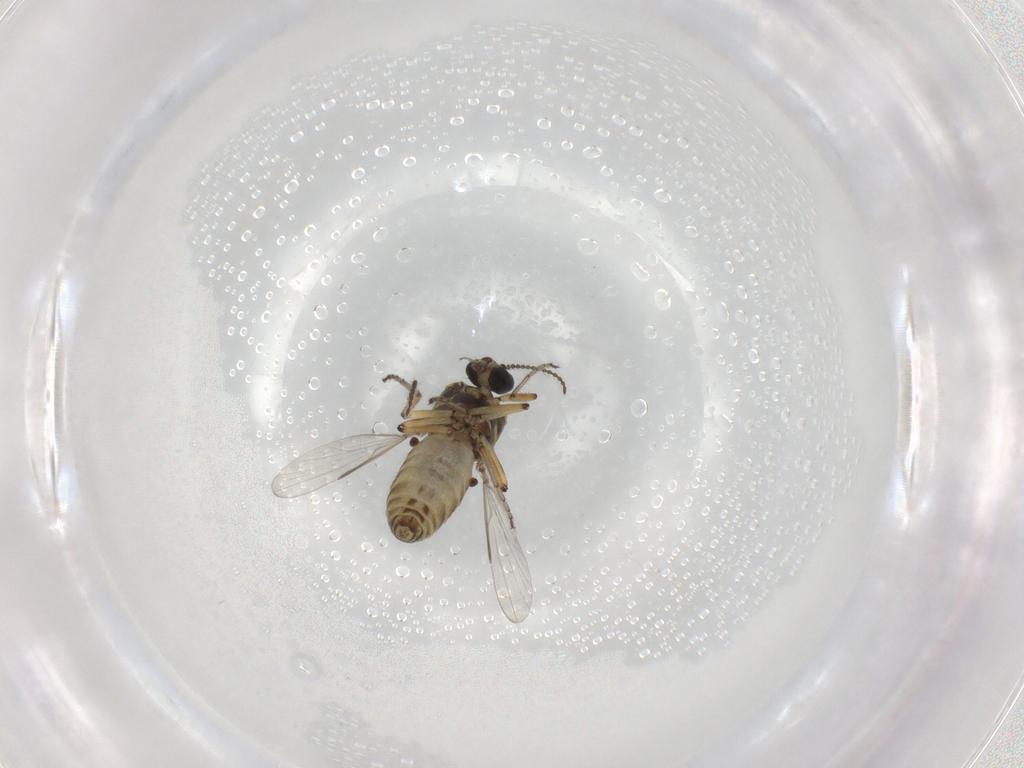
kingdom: Animalia
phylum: Arthropoda
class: Insecta
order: Diptera
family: Ceratopogonidae
